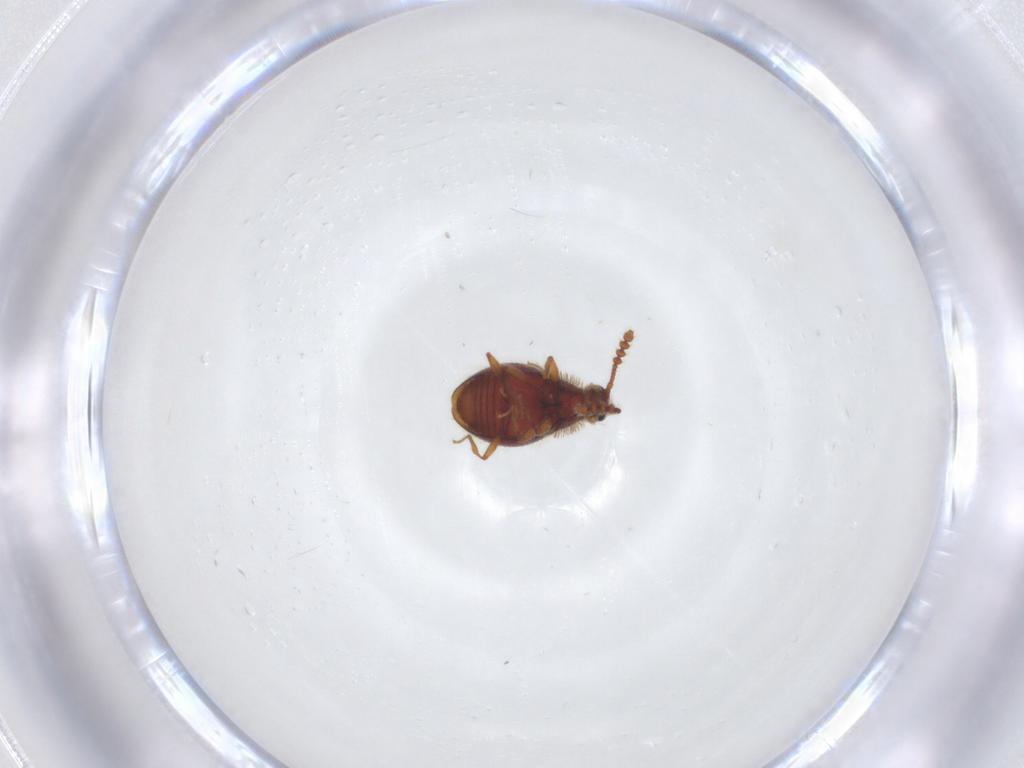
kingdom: Animalia
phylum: Arthropoda
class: Insecta
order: Coleoptera
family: Staphylinidae
